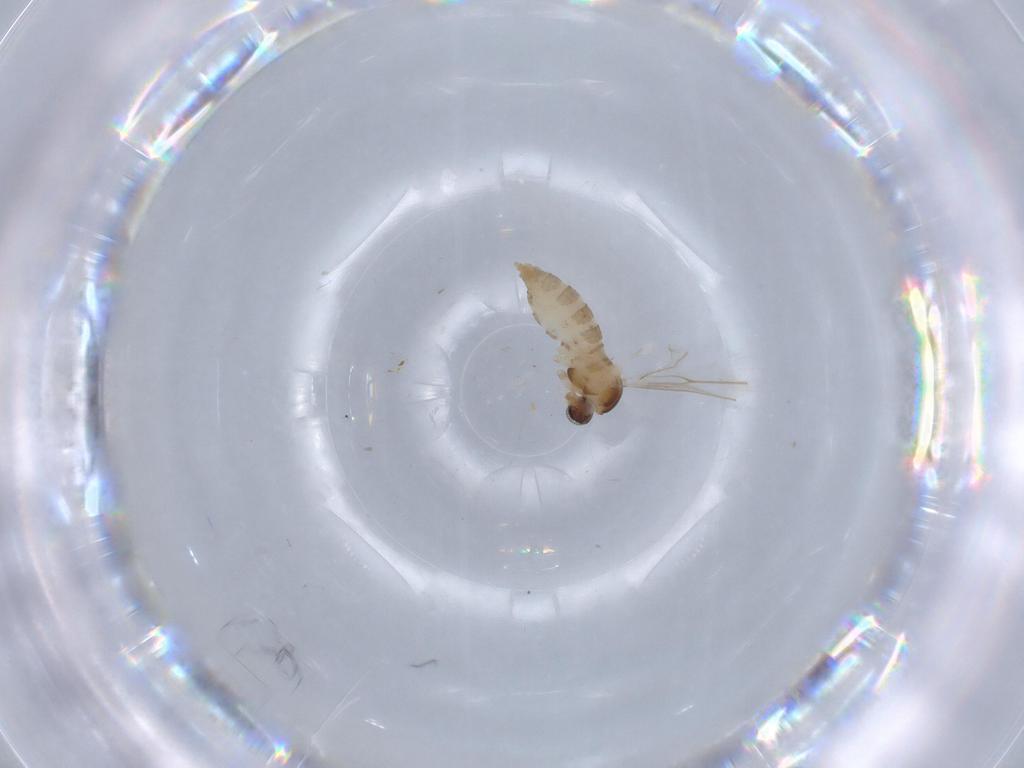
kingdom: Animalia
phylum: Arthropoda
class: Insecta
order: Diptera
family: Cecidomyiidae
